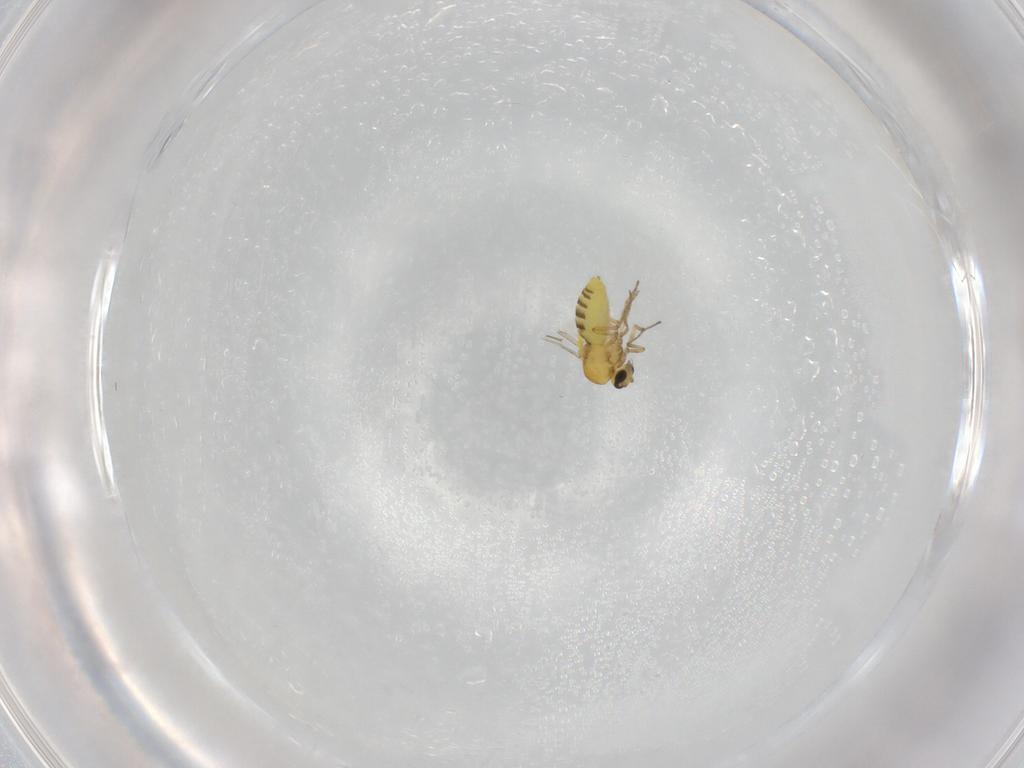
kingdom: Animalia
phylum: Arthropoda
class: Insecta
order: Diptera
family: Ceratopogonidae
